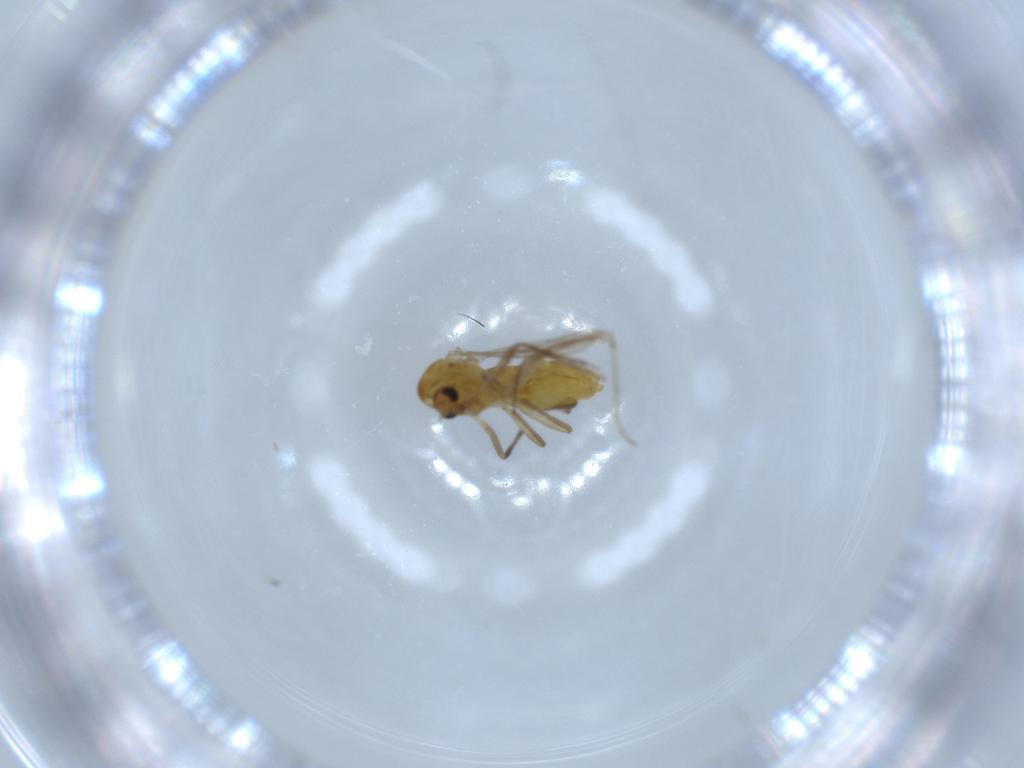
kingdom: Animalia
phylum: Arthropoda
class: Insecta
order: Diptera
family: Chironomidae
